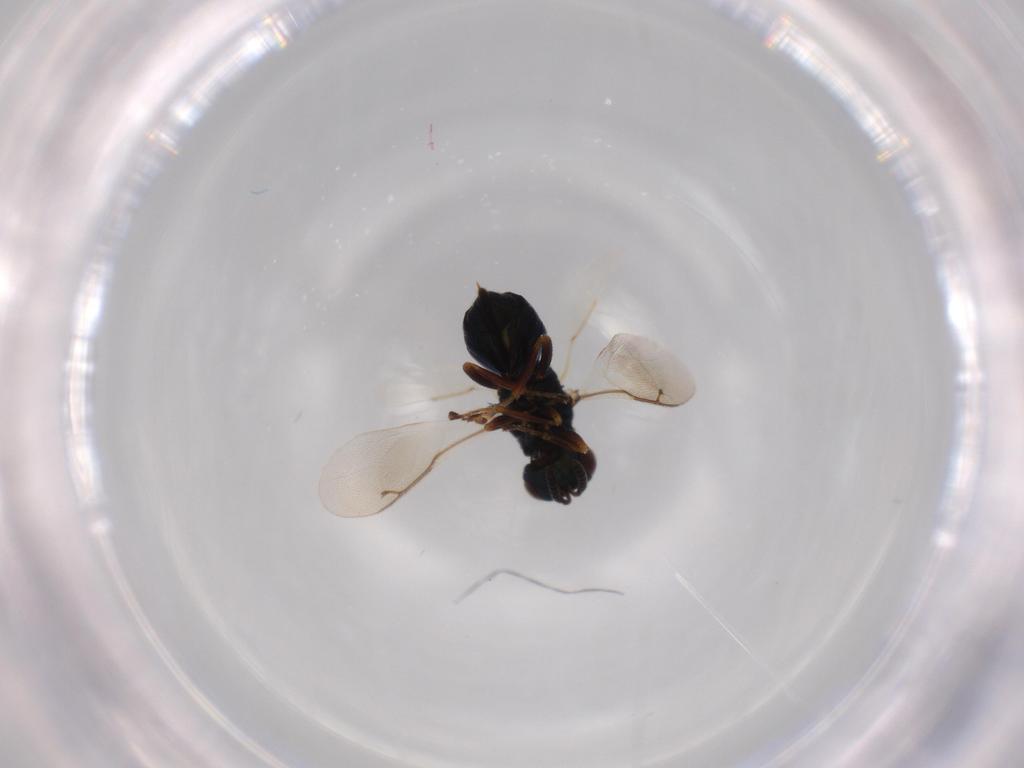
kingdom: Animalia
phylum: Arthropoda
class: Insecta
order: Hymenoptera
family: Pteromalidae
